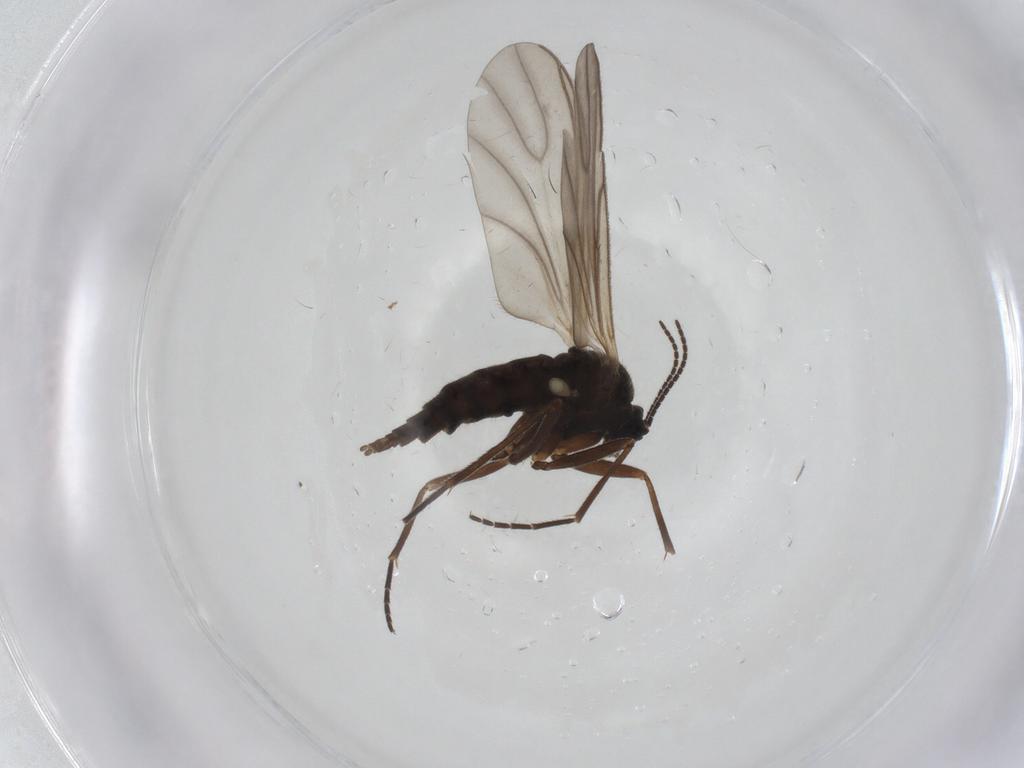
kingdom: Animalia
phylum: Arthropoda
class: Insecta
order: Diptera
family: Sciaridae
